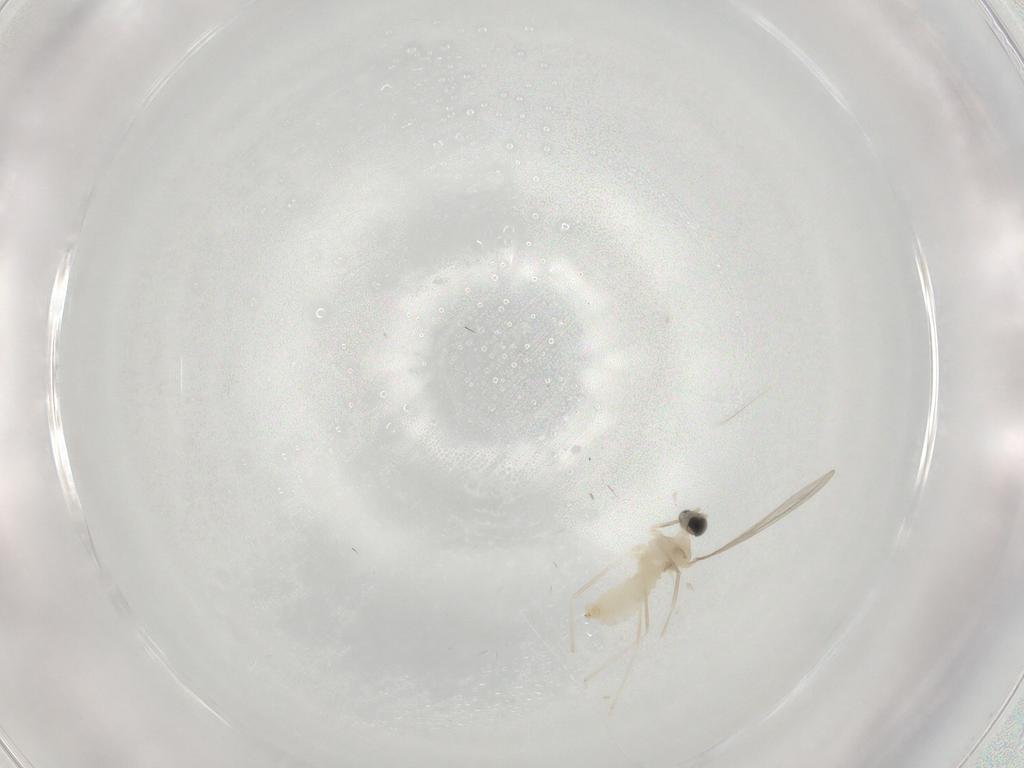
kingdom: Animalia
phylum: Arthropoda
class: Insecta
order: Diptera
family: Cecidomyiidae
